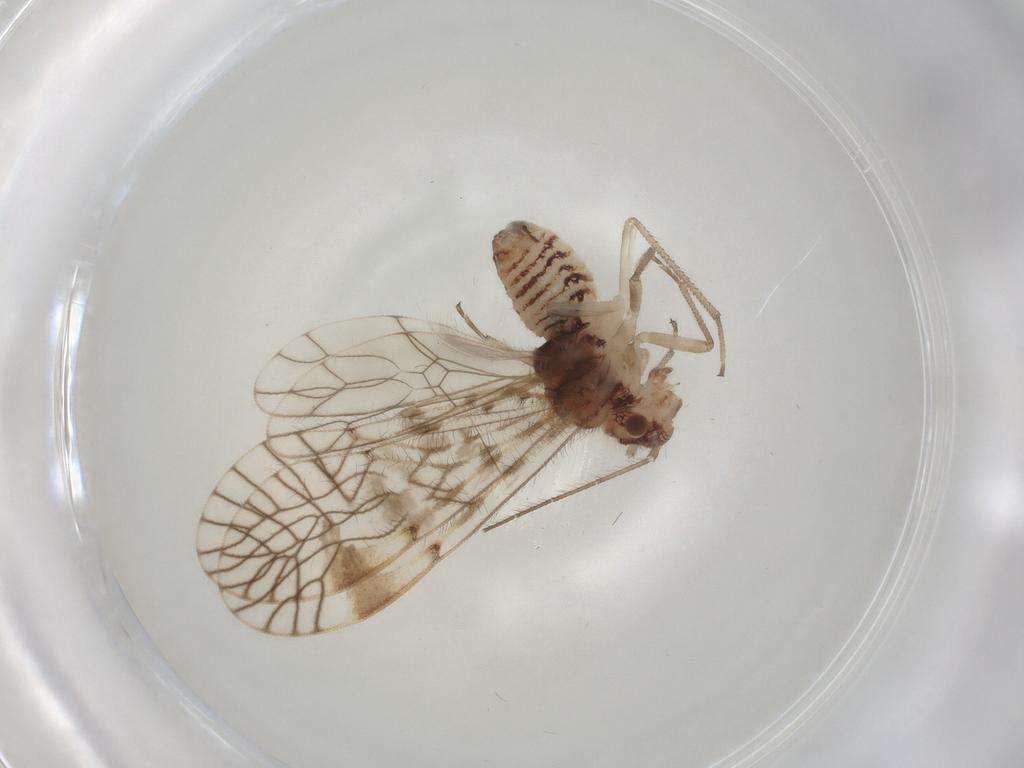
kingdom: Animalia
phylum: Arthropoda
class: Insecta
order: Psocodea
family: Amphipsocidae
